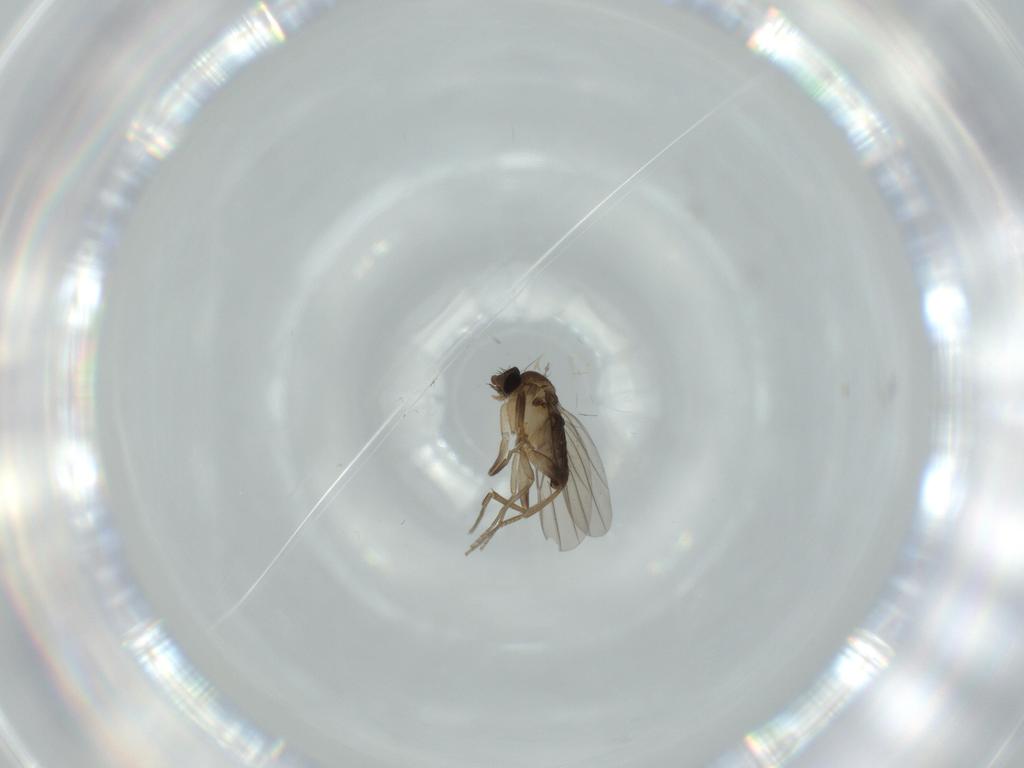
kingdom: Animalia
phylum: Arthropoda
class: Insecta
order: Diptera
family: Phoridae
